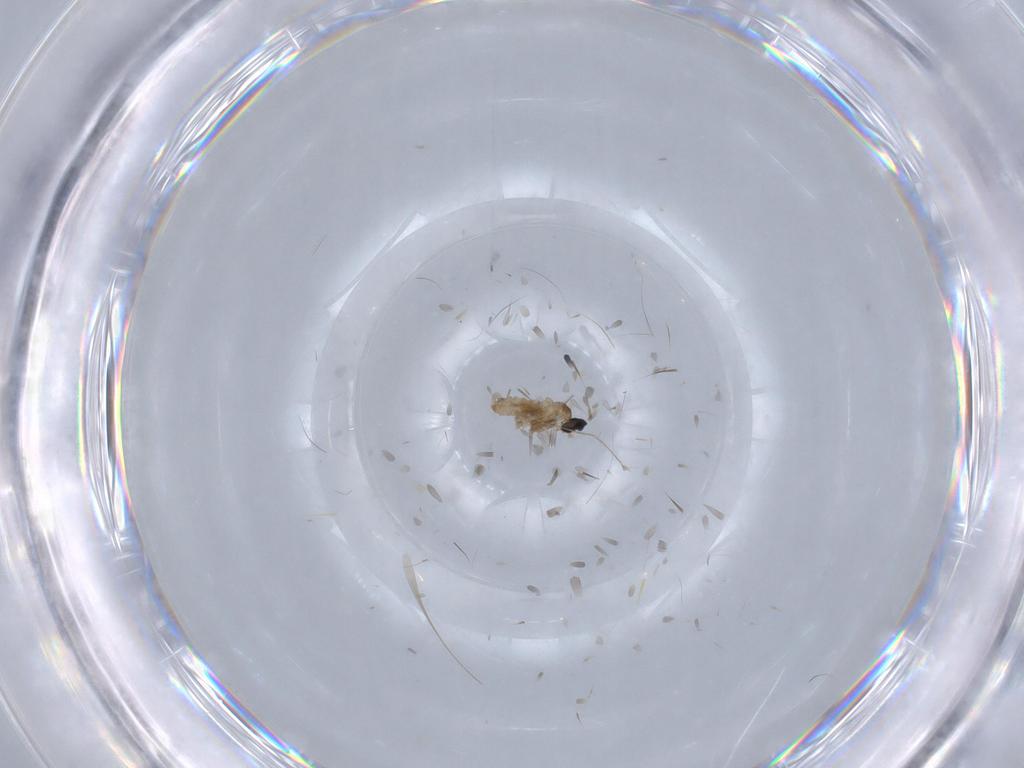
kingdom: Animalia
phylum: Arthropoda
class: Insecta
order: Diptera
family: Stratiomyidae
